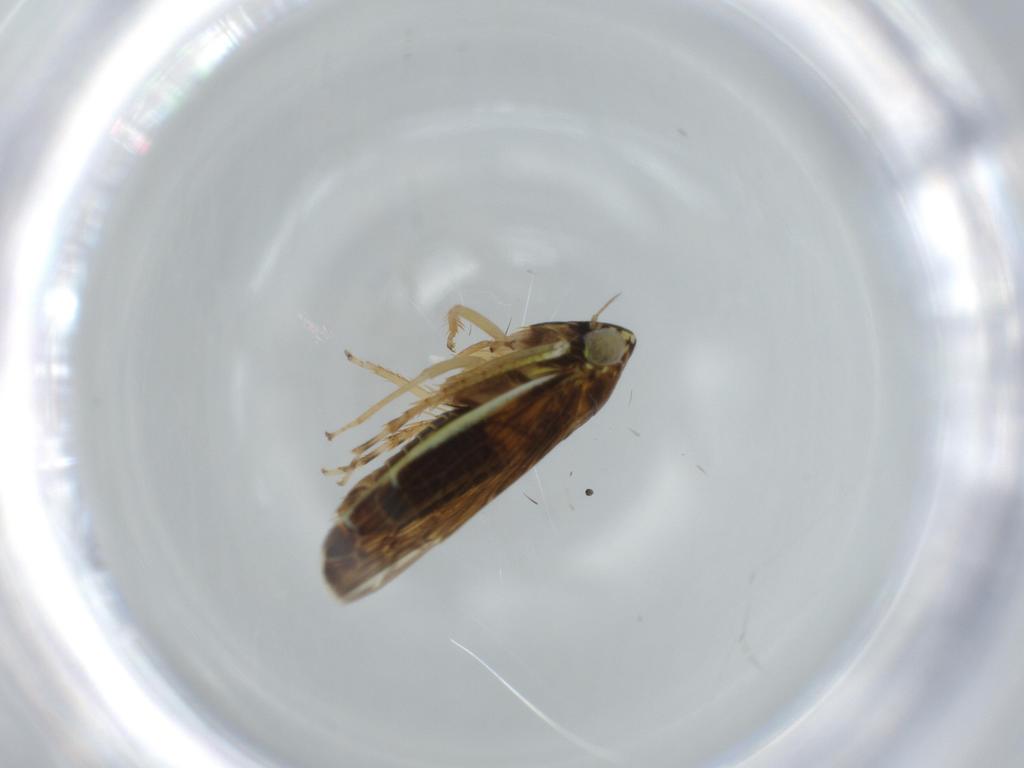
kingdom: Animalia
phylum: Arthropoda
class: Insecta
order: Hemiptera
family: Cicadellidae
